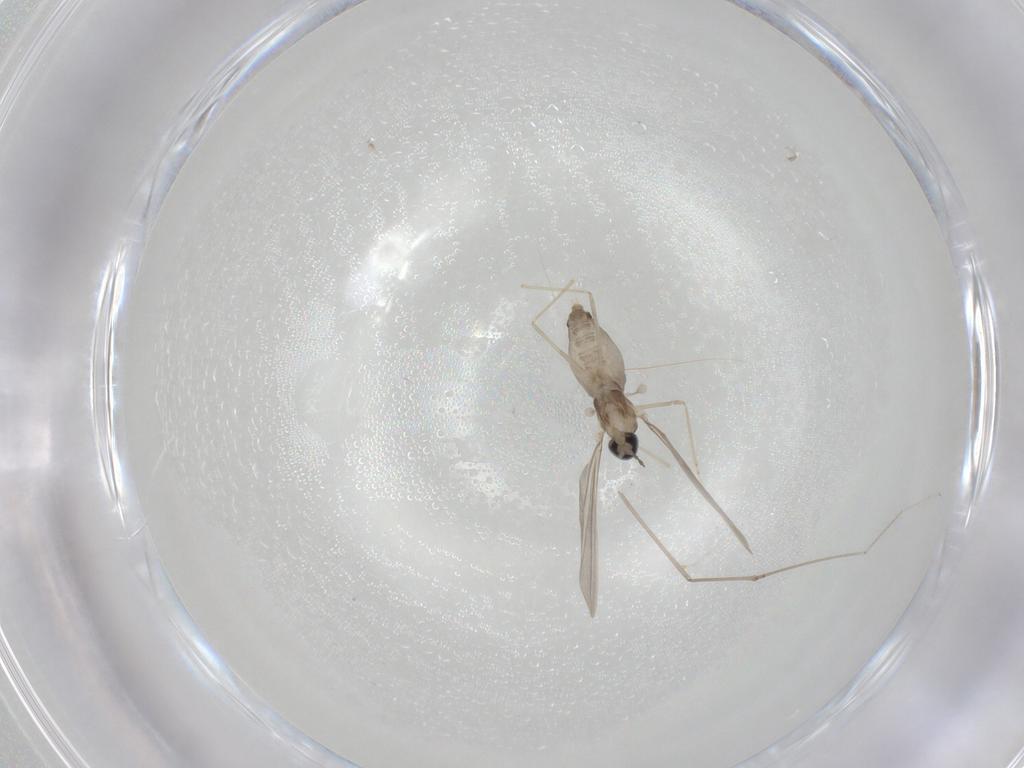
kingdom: Animalia
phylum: Arthropoda
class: Insecta
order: Diptera
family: Cecidomyiidae
